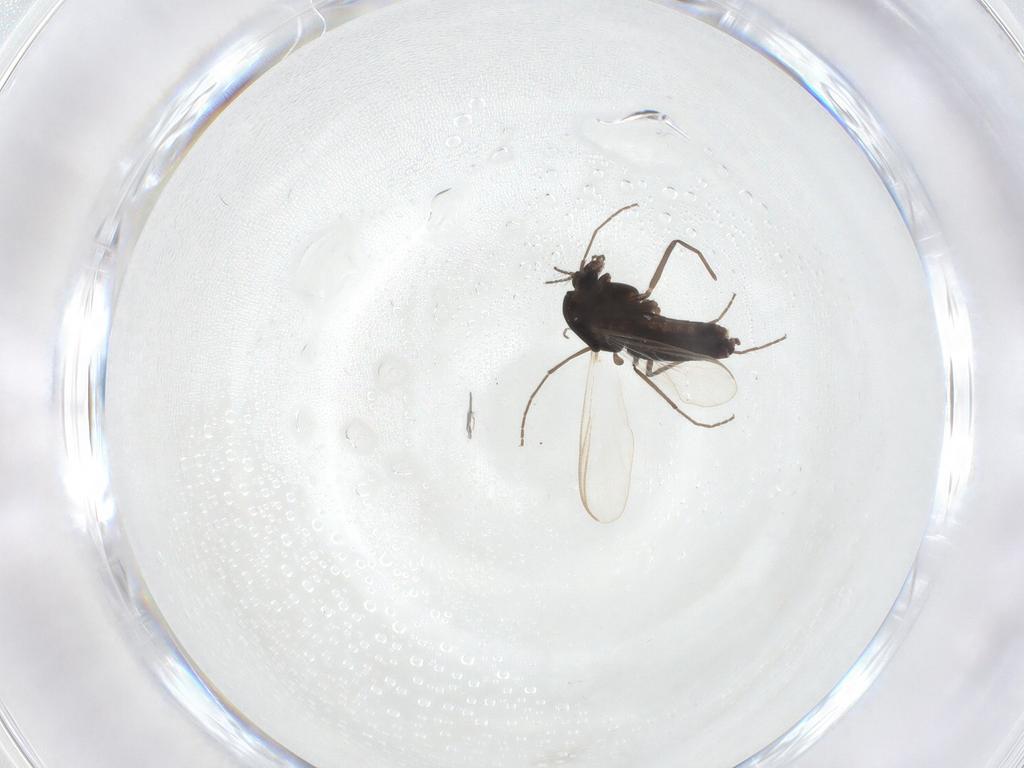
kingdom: Animalia
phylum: Arthropoda
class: Insecta
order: Diptera
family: Chironomidae
